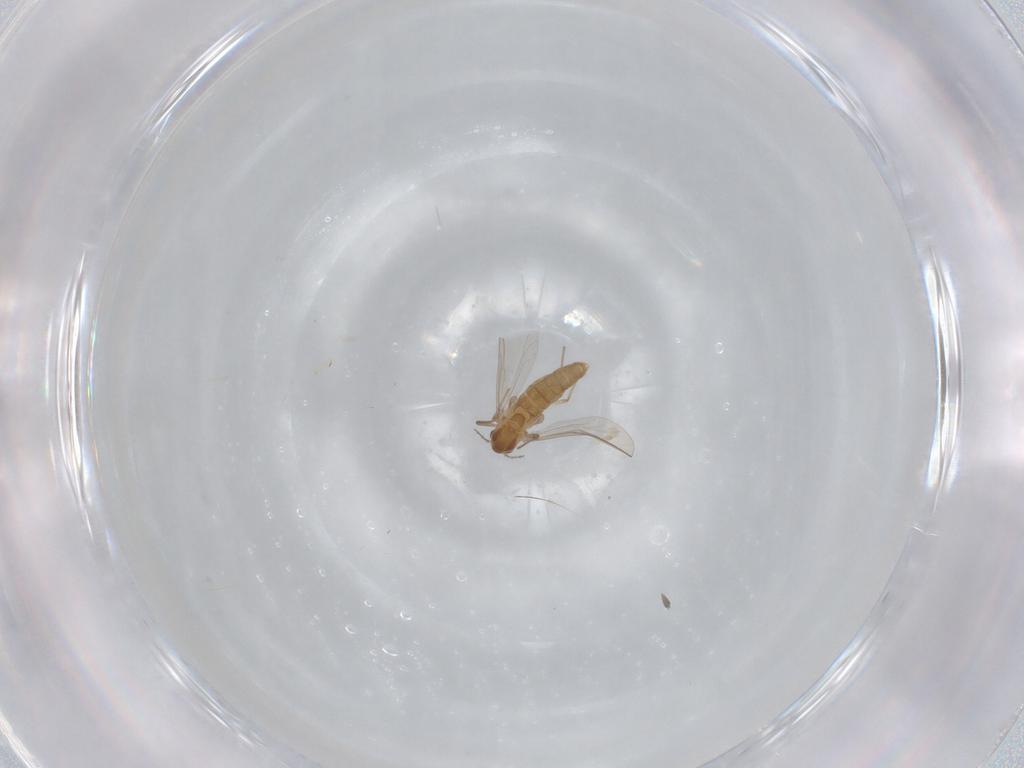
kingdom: Animalia
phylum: Arthropoda
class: Insecta
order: Diptera
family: Chironomidae
